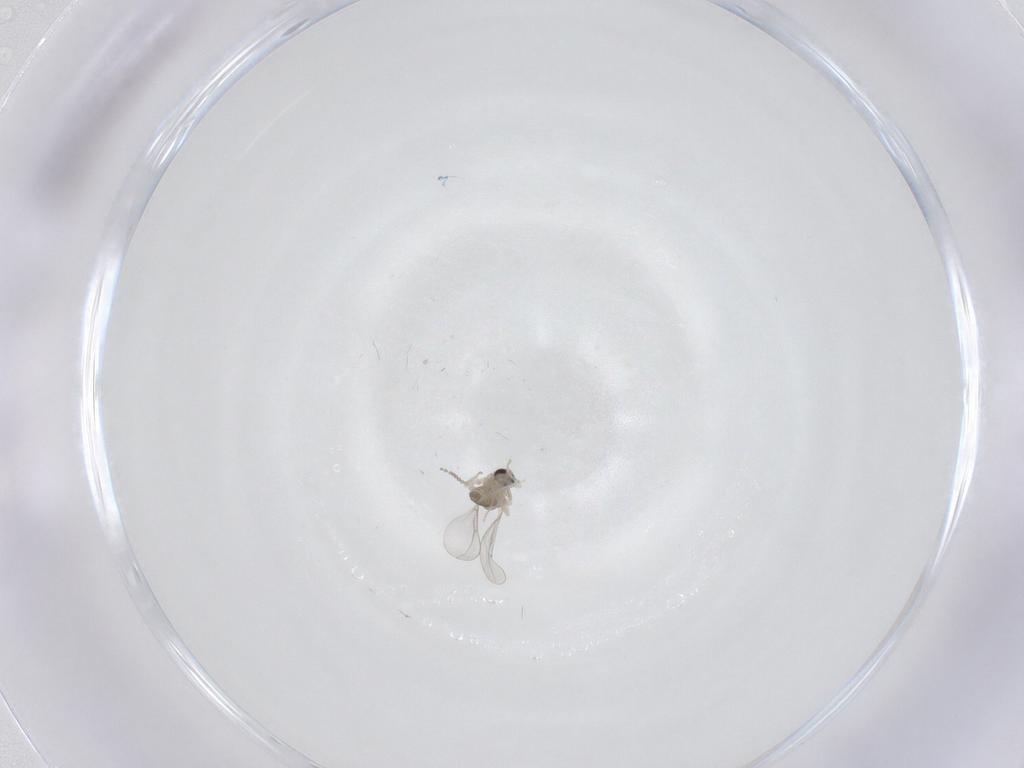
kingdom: Animalia
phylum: Arthropoda
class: Insecta
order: Diptera
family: Cecidomyiidae
